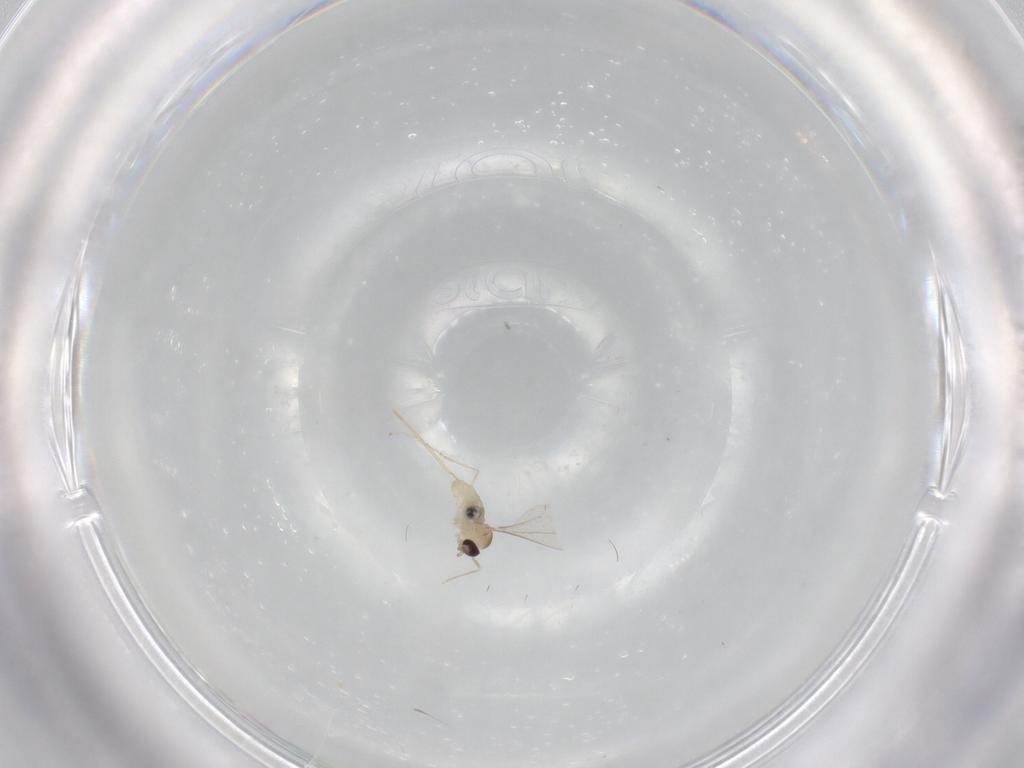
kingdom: Animalia
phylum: Arthropoda
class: Insecta
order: Diptera
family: Cecidomyiidae
